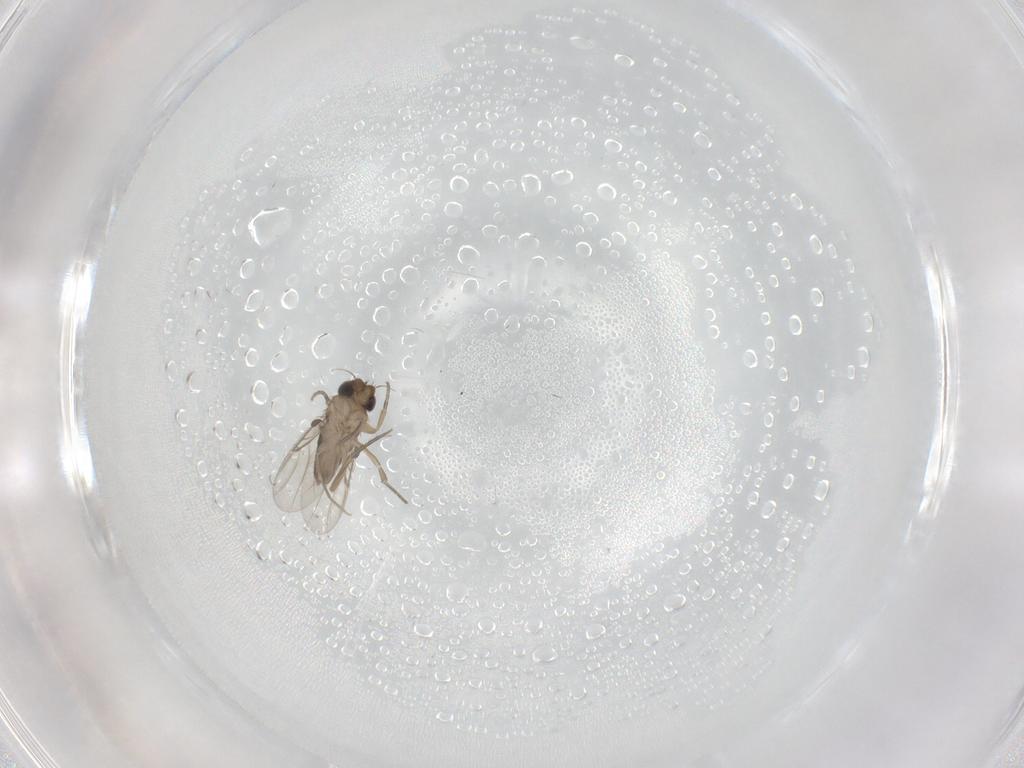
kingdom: Animalia
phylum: Arthropoda
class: Insecta
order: Diptera
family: Phoridae
